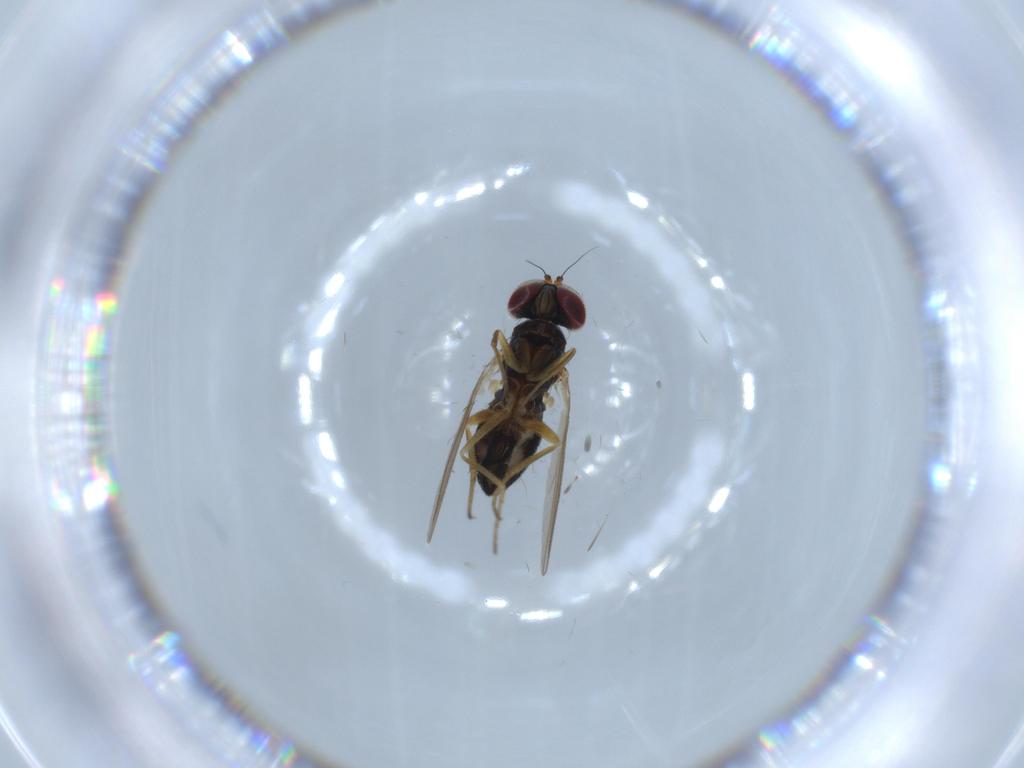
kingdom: Animalia
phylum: Arthropoda
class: Insecta
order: Diptera
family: Dolichopodidae
